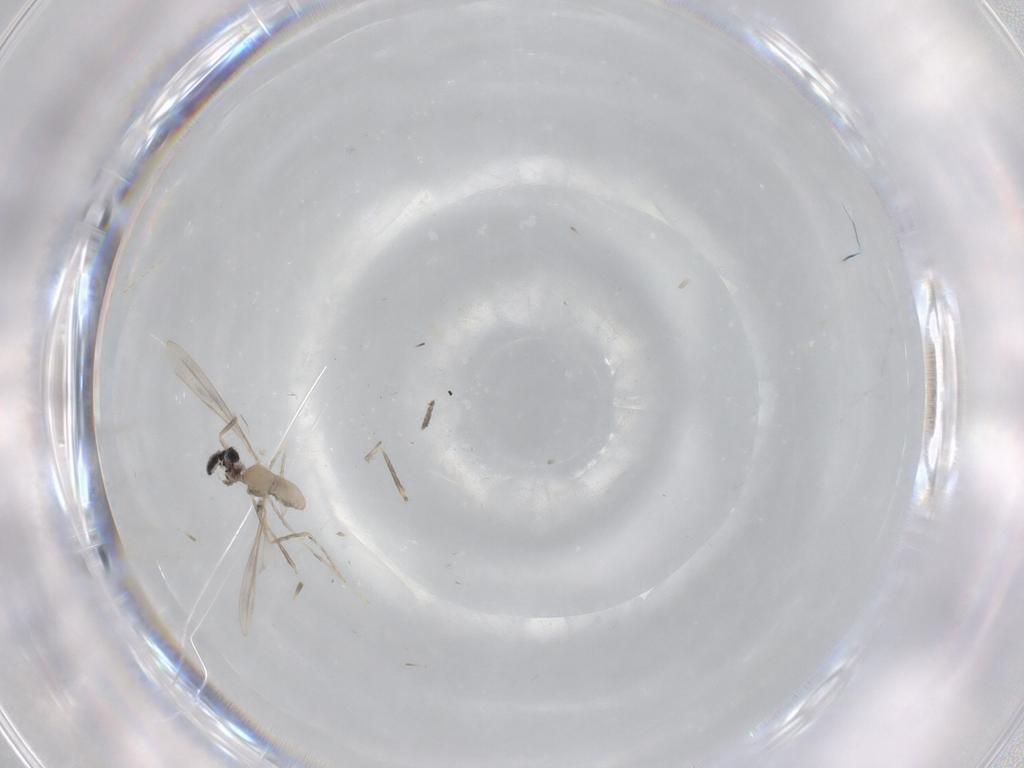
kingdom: Animalia
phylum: Arthropoda
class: Insecta
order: Diptera
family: Cecidomyiidae
